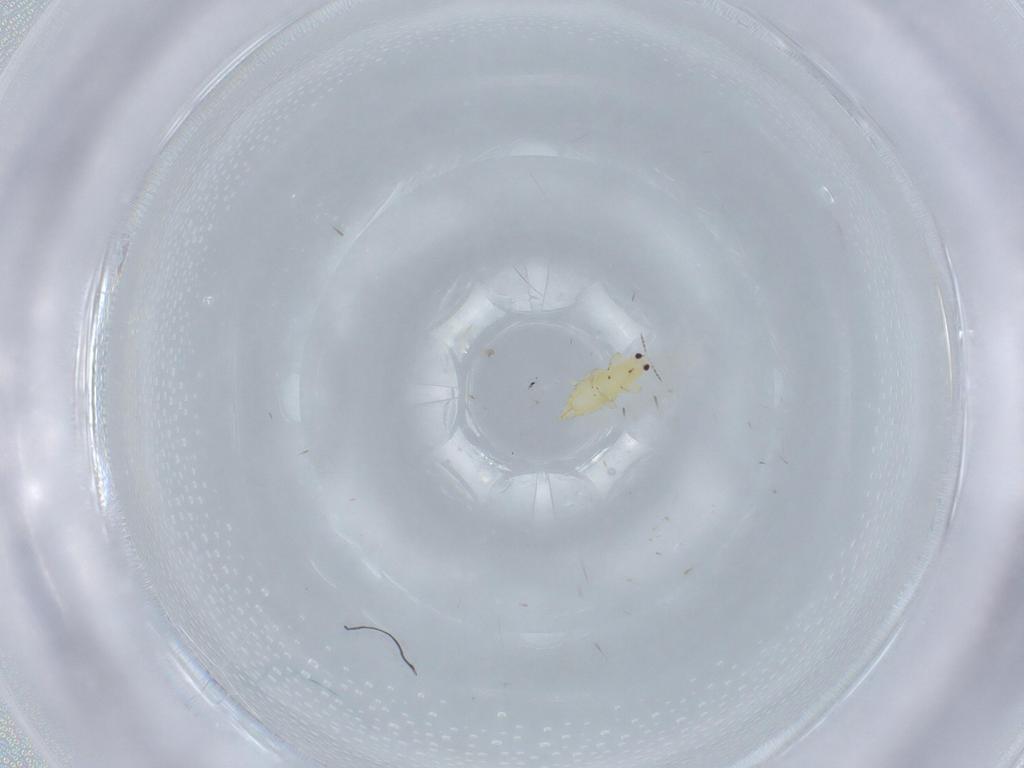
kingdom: Animalia
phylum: Arthropoda
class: Insecta
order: Thysanoptera
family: Thripidae
